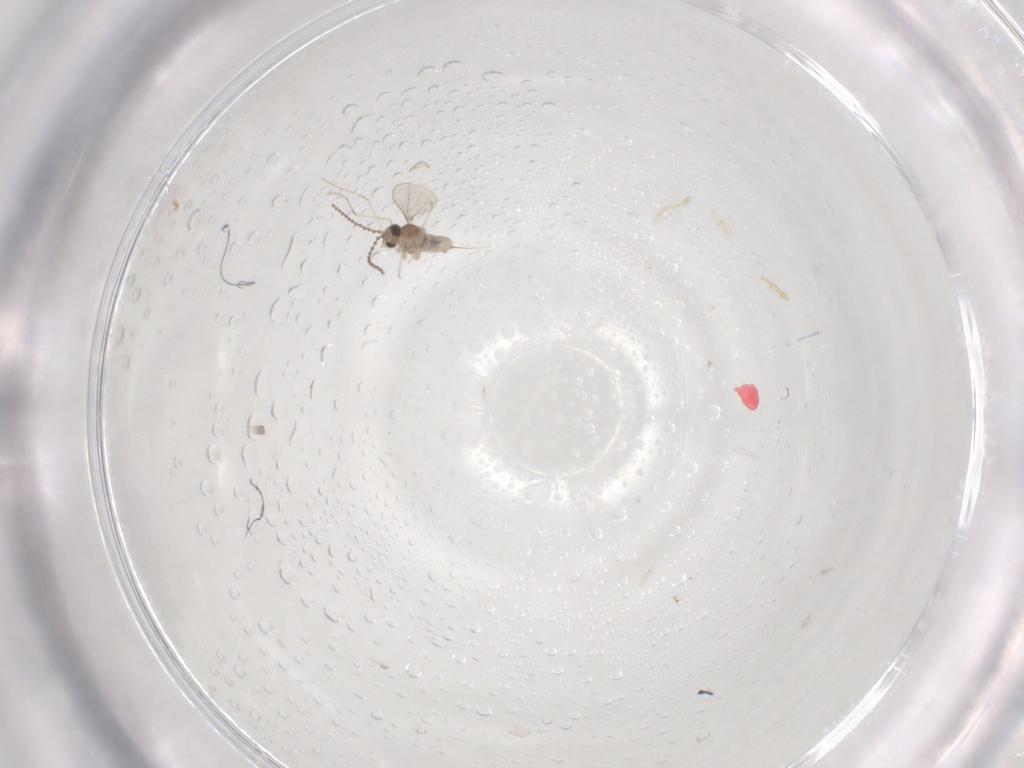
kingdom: Animalia
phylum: Arthropoda
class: Insecta
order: Diptera
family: Cecidomyiidae
